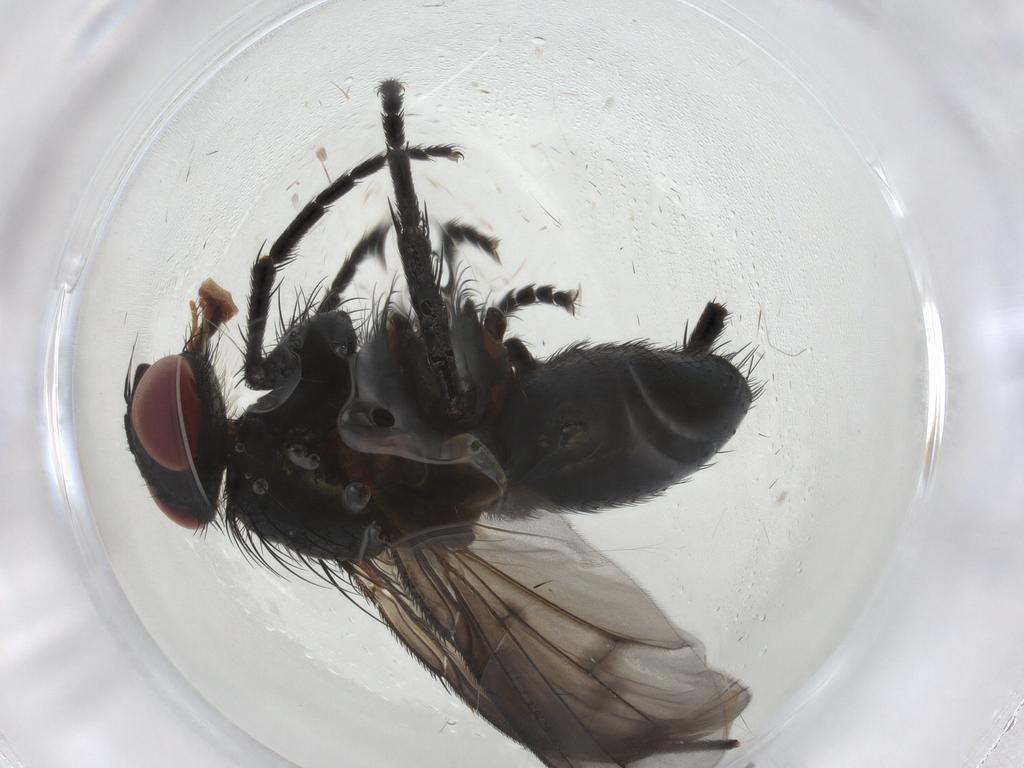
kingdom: Animalia
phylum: Arthropoda
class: Insecta
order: Diptera
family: Tachinidae
